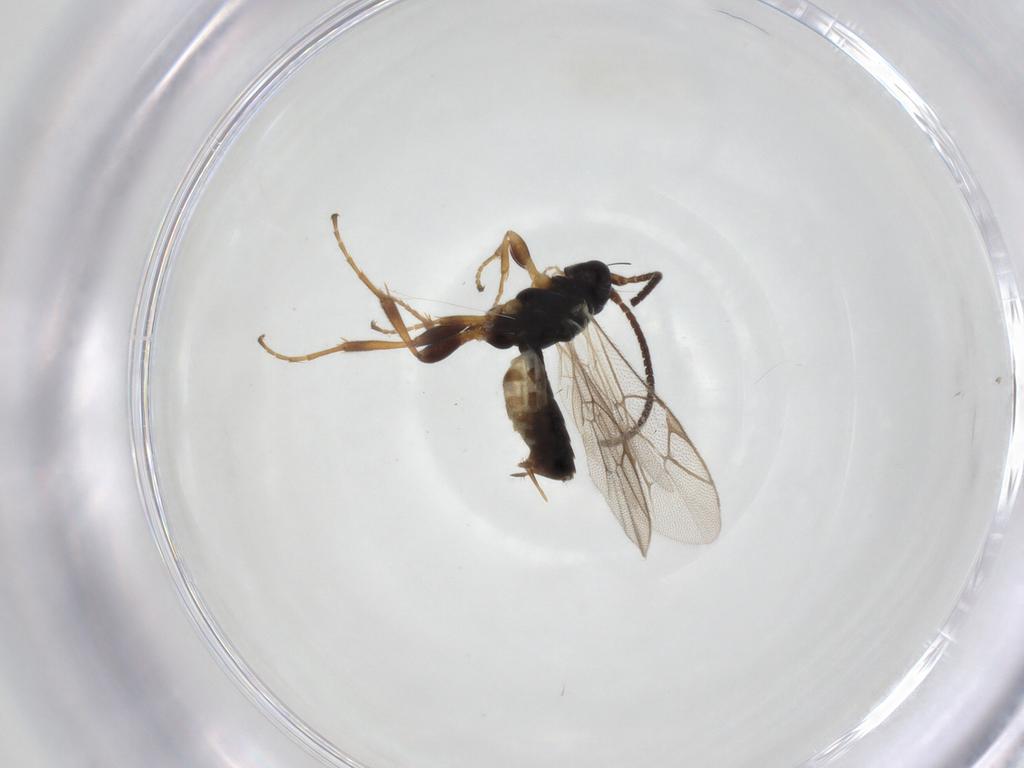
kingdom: Animalia
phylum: Arthropoda
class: Insecta
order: Hymenoptera
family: Ichneumonidae
